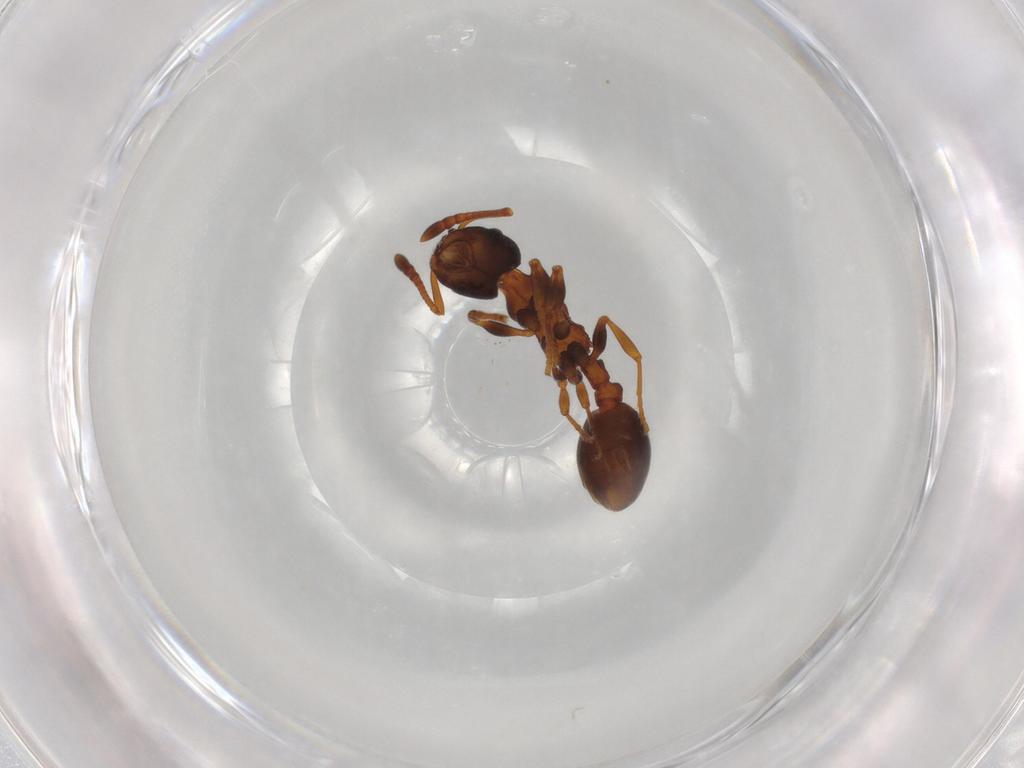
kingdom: Animalia
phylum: Arthropoda
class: Insecta
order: Hymenoptera
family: Formicidae
